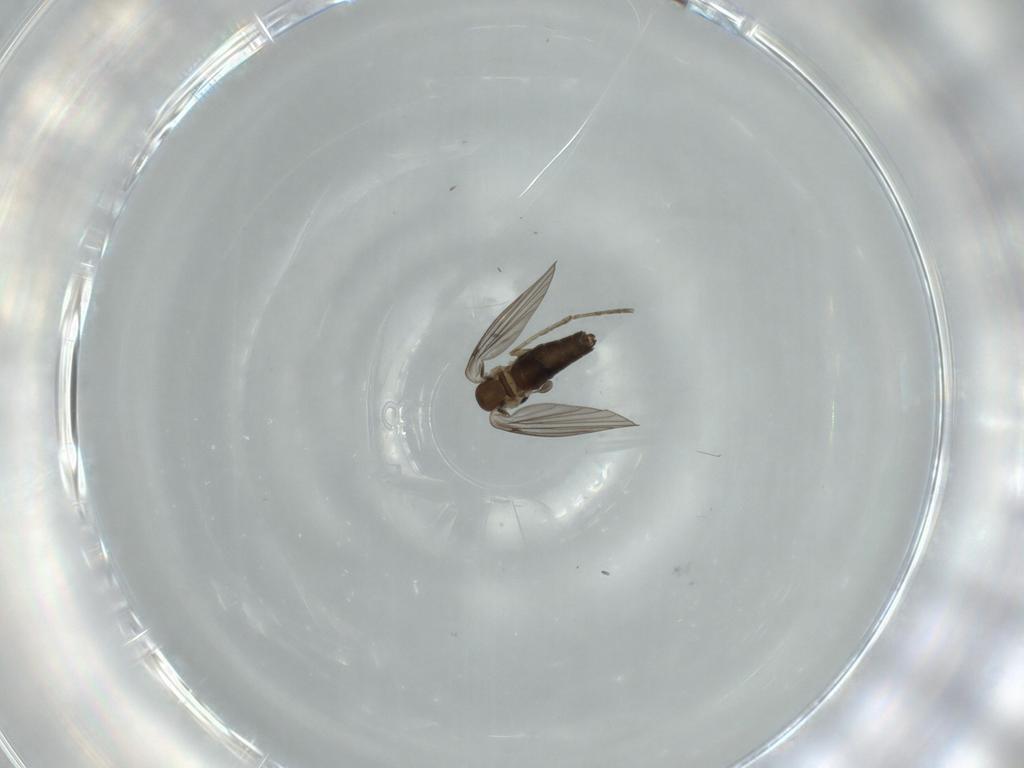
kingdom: Animalia
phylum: Arthropoda
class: Insecta
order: Diptera
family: Psychodidae
